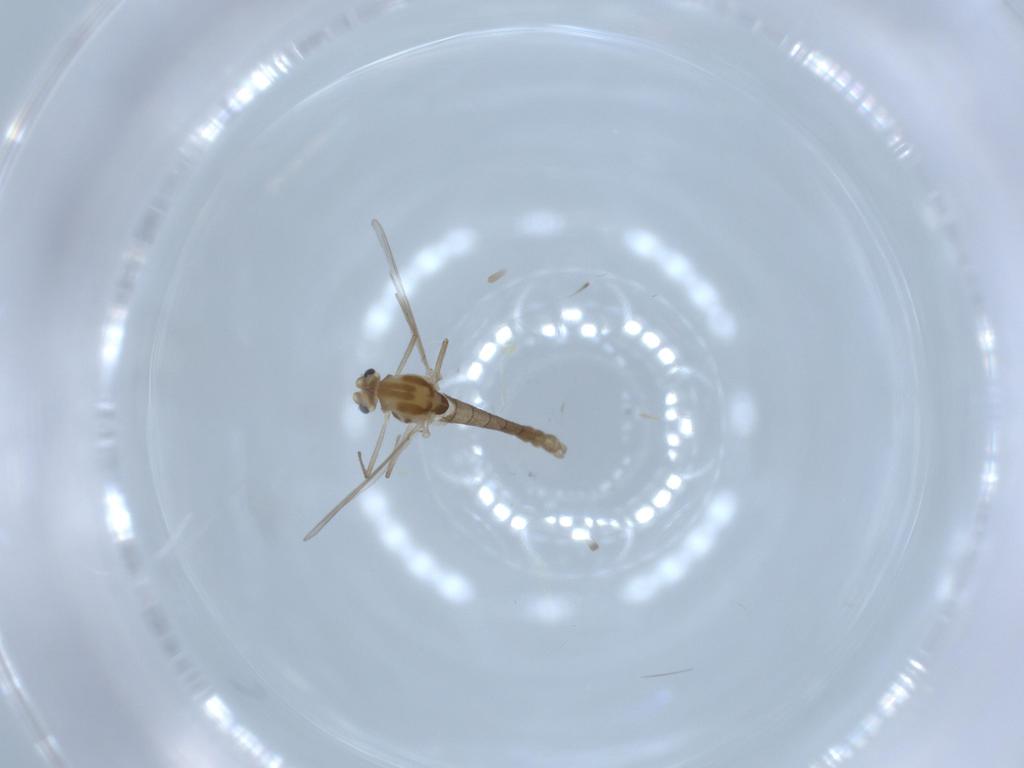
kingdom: Animalia
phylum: Arthropoda
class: Insecta
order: Diptera
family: Chironomidae
